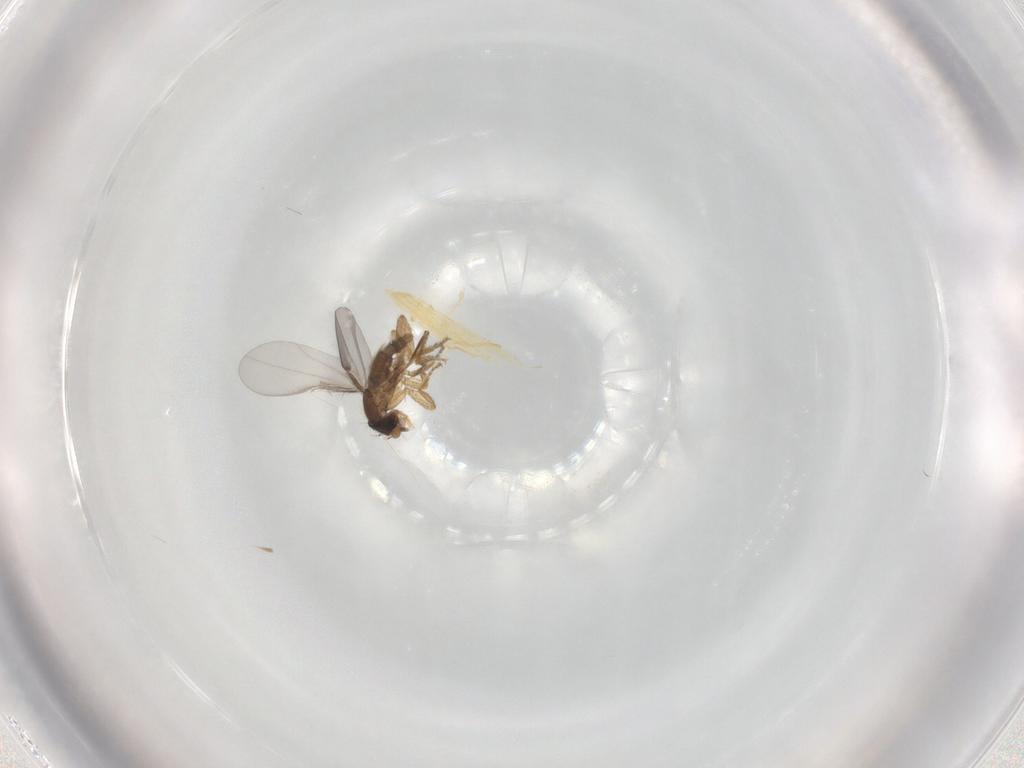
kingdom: Animalia
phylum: Arthropoda
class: Insecta
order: Diptera
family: Phoridae
